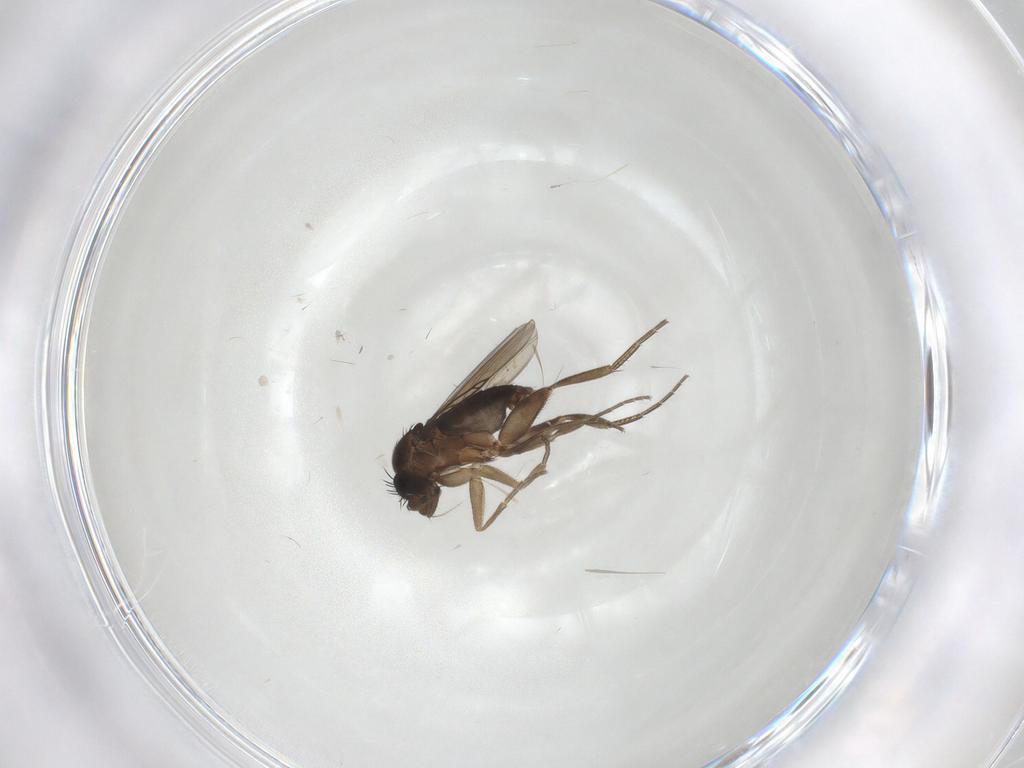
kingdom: Animalia
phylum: Arthropoda
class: Insecta
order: Diptera
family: Phoridae
